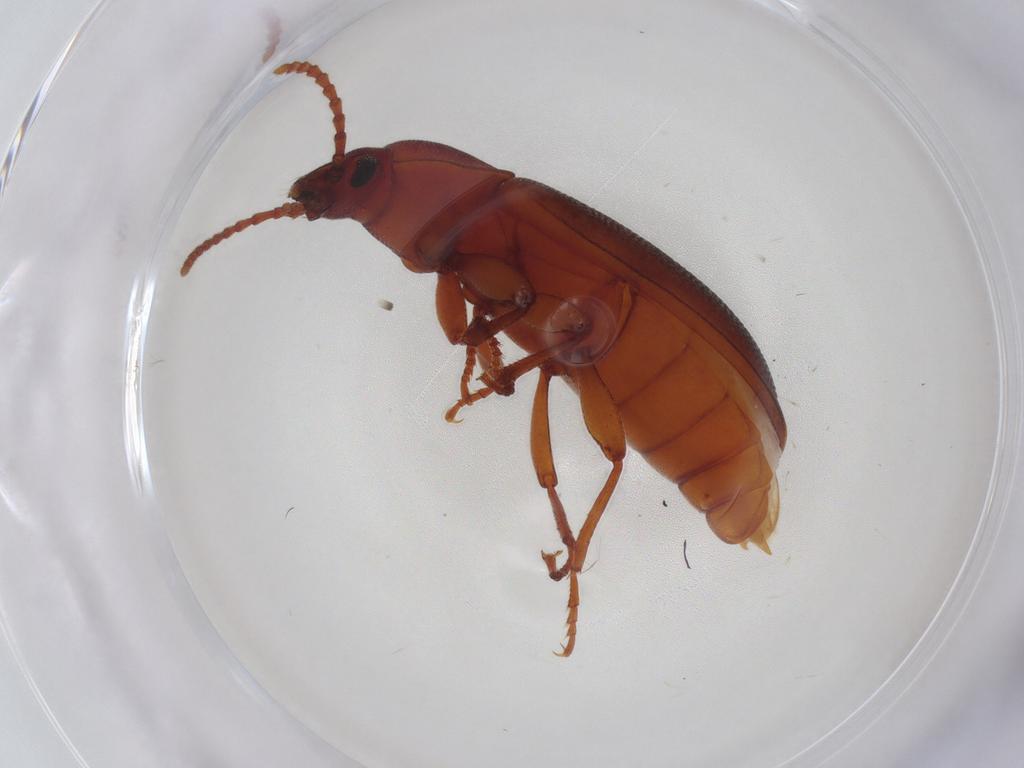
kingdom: Animalia
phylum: Arthropoda
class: Insecta
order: Coleoptera
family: Tenebrionidae
